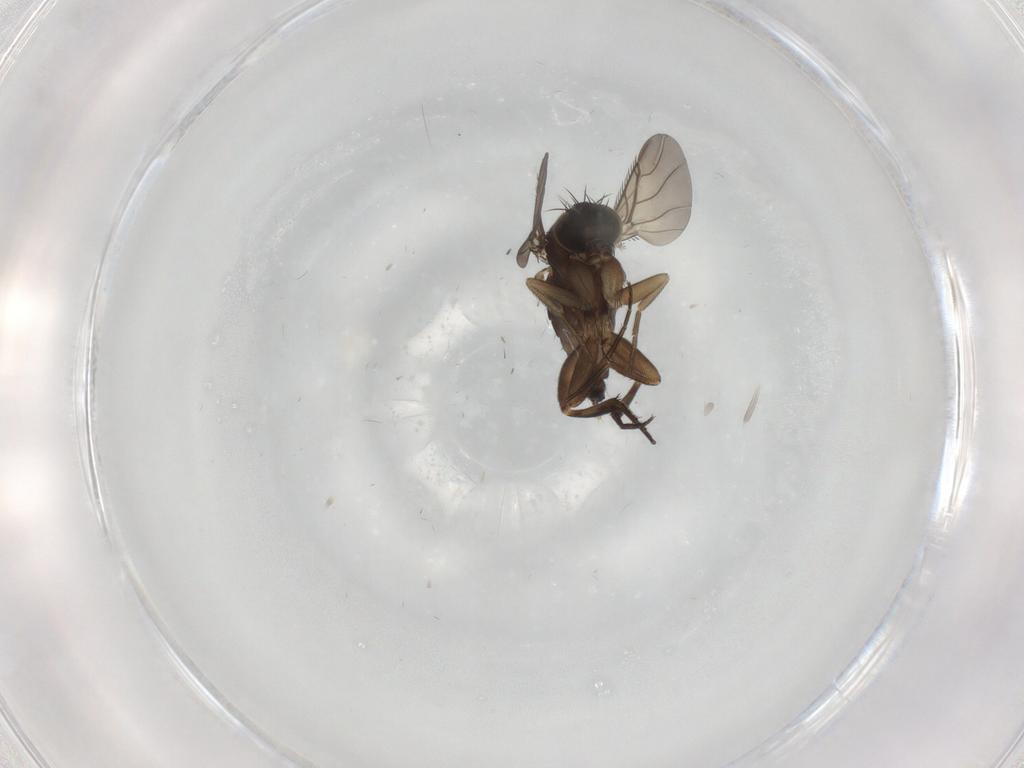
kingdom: Animalia
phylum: Arthropoda
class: Insecta
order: Diptera
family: Phoridae
